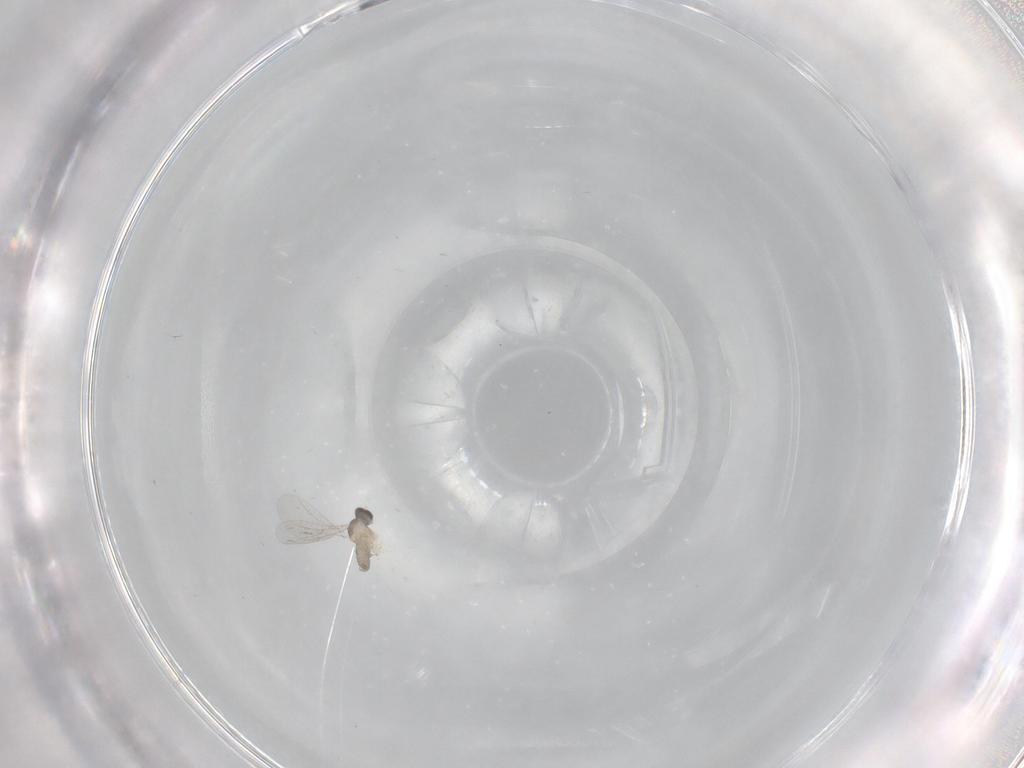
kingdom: Animalia
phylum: Arthropoda
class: Insecta
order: Diptera
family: Cecidomyiidae
